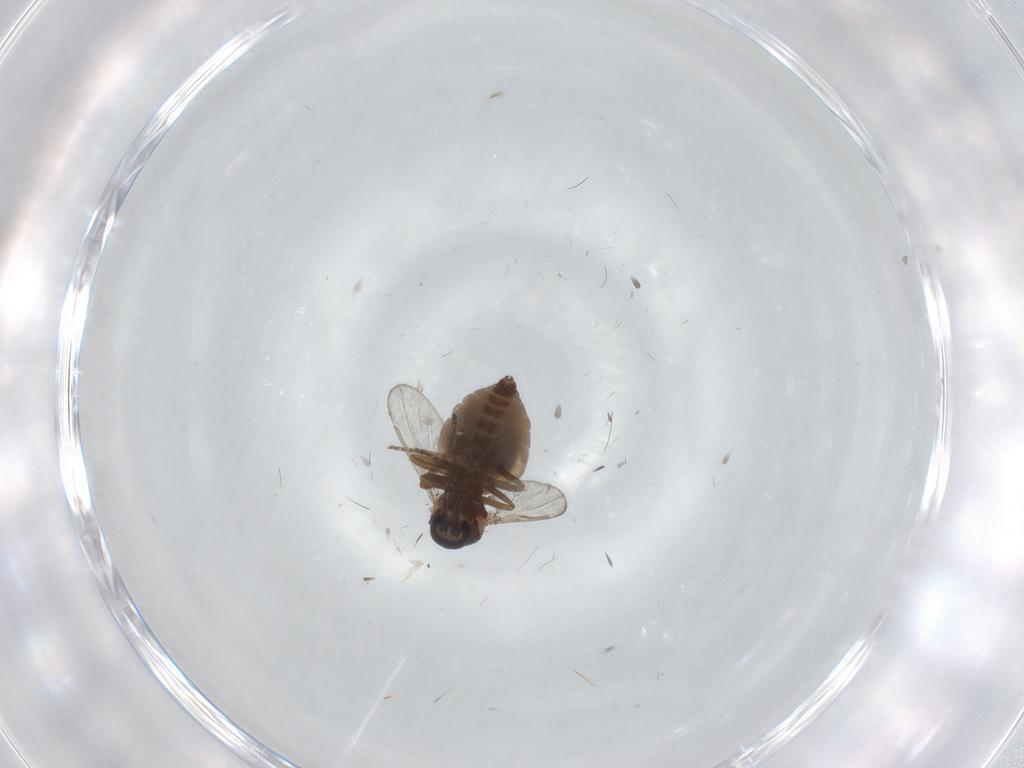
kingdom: Animalia
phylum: Arthropoda
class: Insecta
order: Diptera
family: Ceratopogonidae
